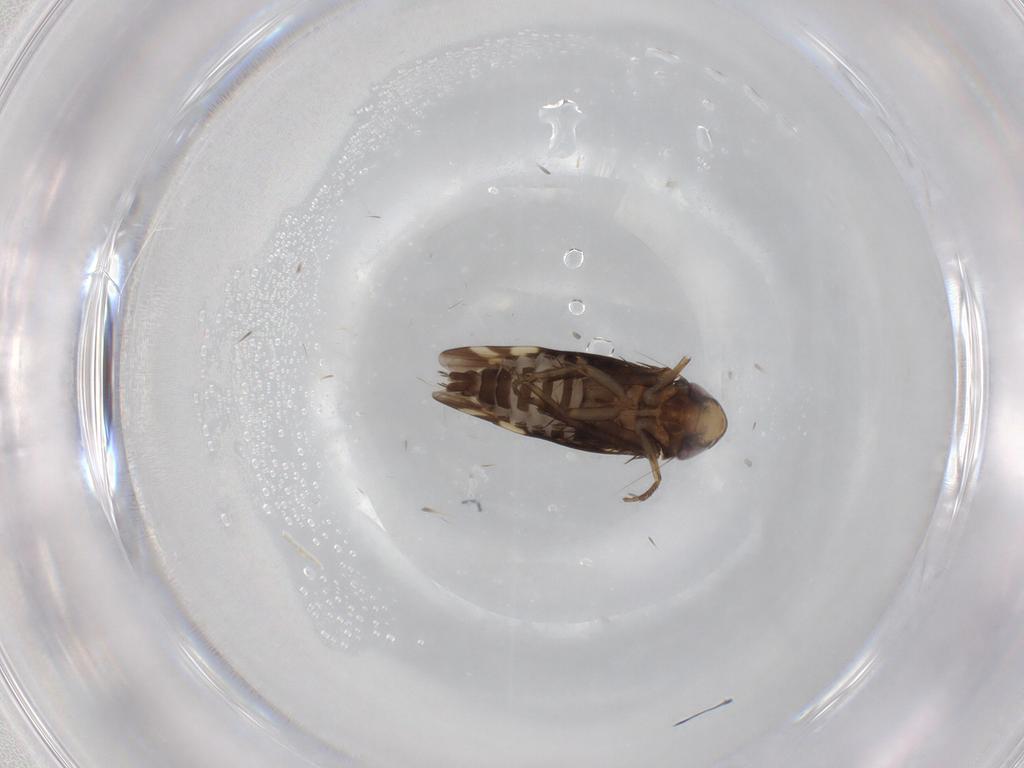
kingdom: Animalia
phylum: Arthropoda
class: Insecta
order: Hemiptera
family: Cicadellidae
